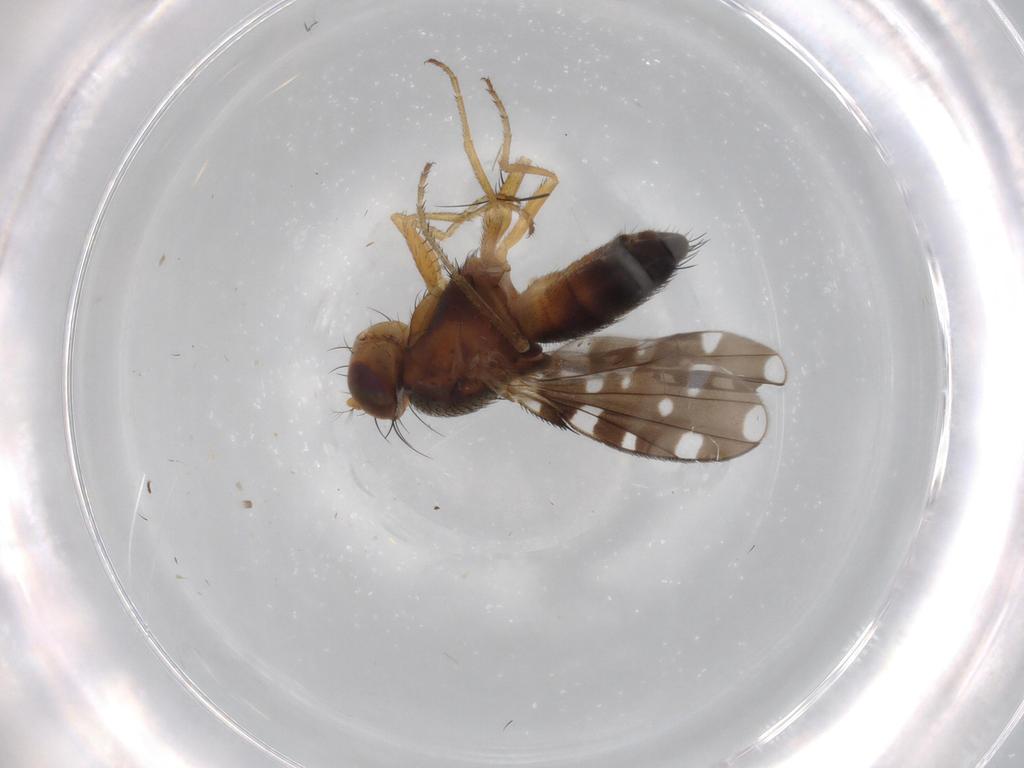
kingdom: Animalia
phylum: Arthropoda
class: Insecta
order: Diptera
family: Ephydridae
